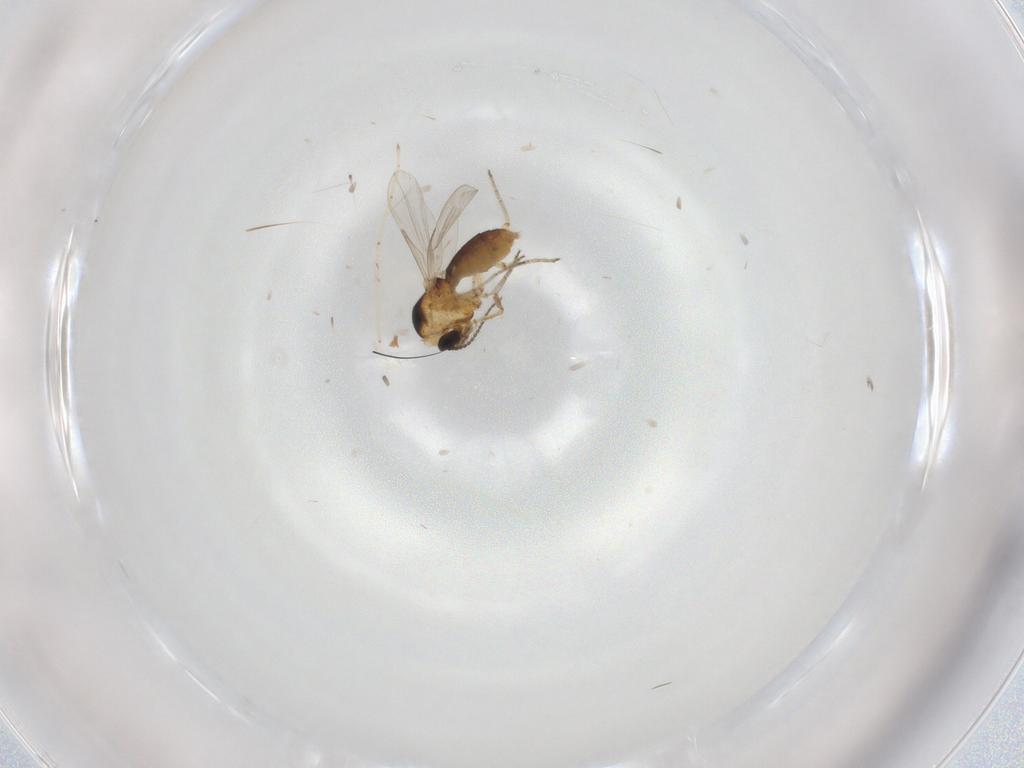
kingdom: Animalia
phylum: Arthropoda
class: Insecta
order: Diptera
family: Ceratopogonidae
